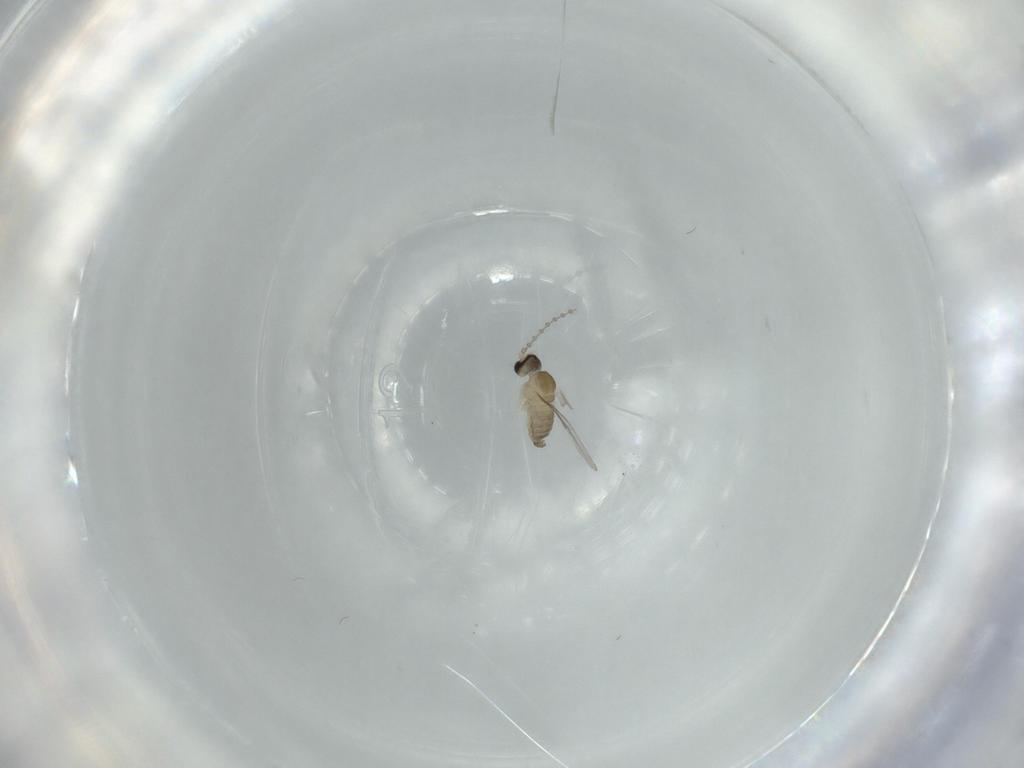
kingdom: Animalia
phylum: Arthropoda
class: Insecta
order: Diptera
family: Cecidomyiidae
